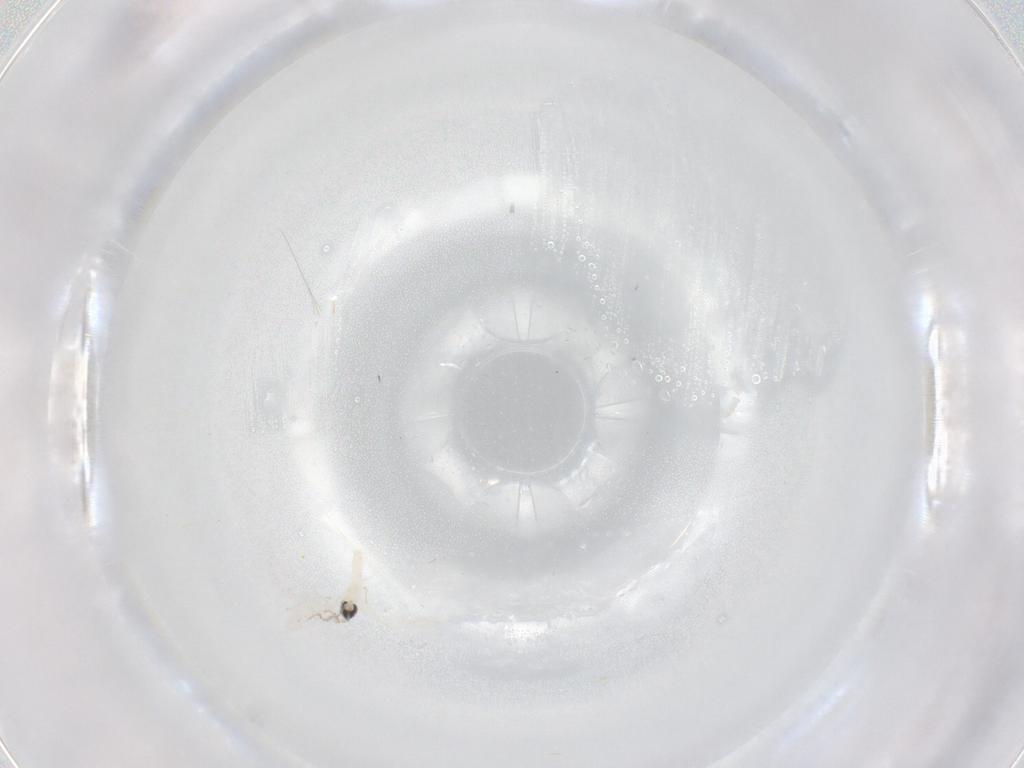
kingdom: Animalia
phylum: Arthropoda
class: Insecta
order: Diptera
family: Cecidomyiidae
